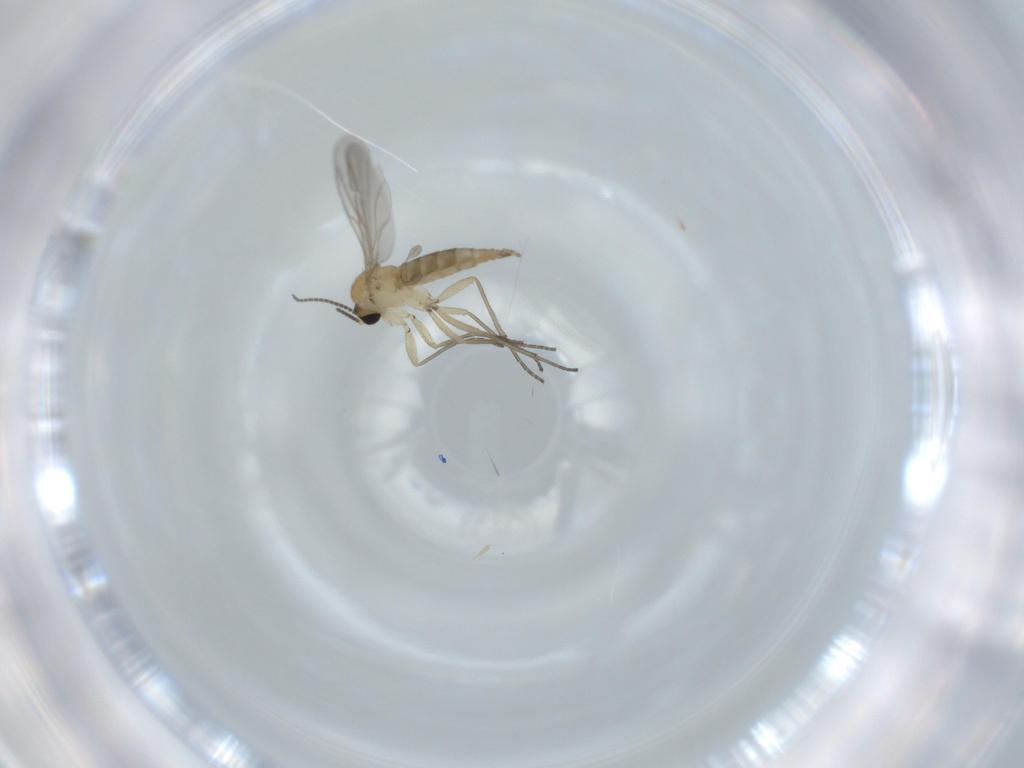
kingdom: Animalia
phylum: Arthropoda
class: Insecta
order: Diptera
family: Sciaridae
